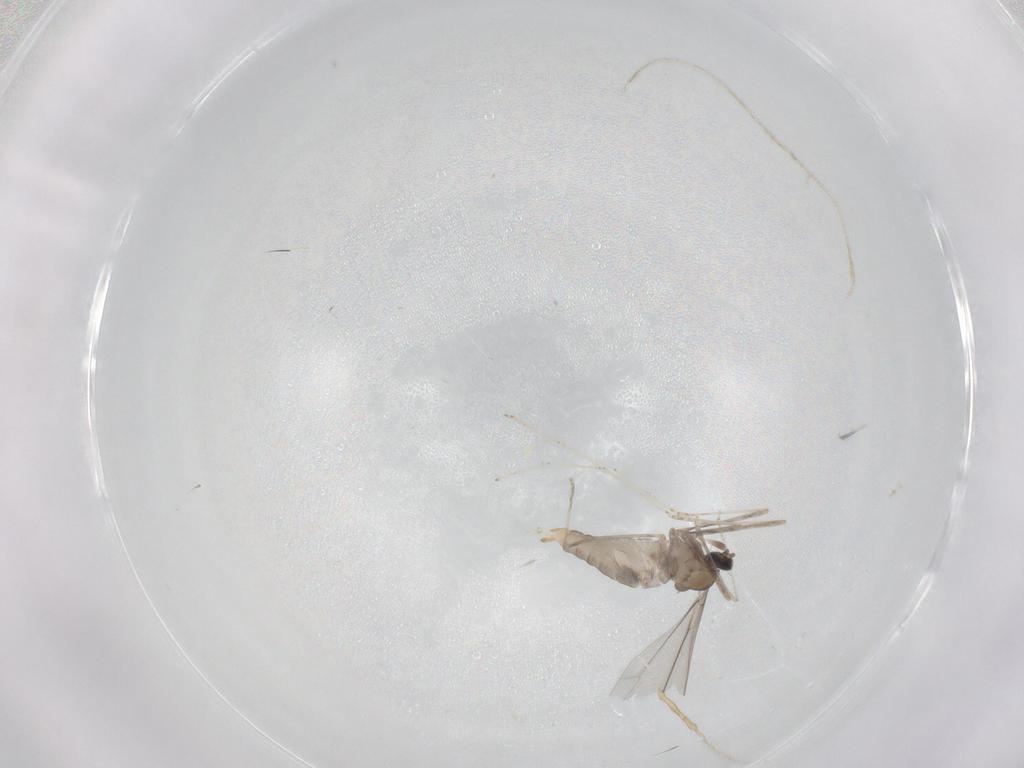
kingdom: Animalia
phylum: Arthropoda
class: Insecta
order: Diptera
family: Cecidomyiidae
